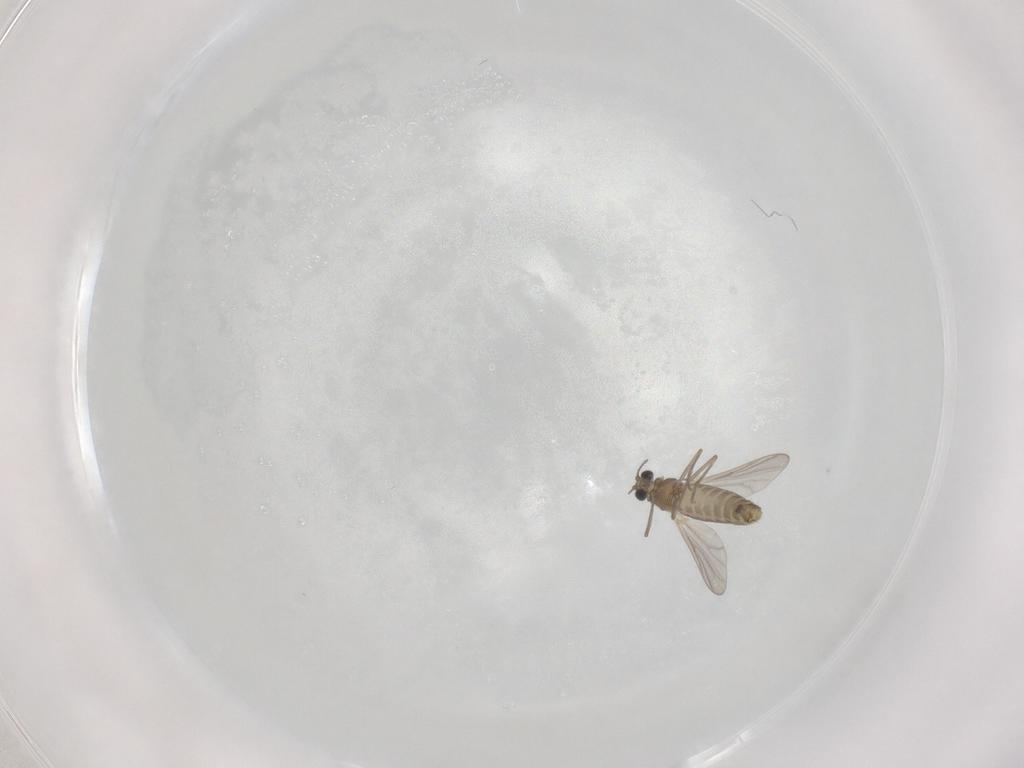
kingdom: Animalia
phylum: Arthropoda
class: Insecta
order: Diptera
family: Chironomidae
